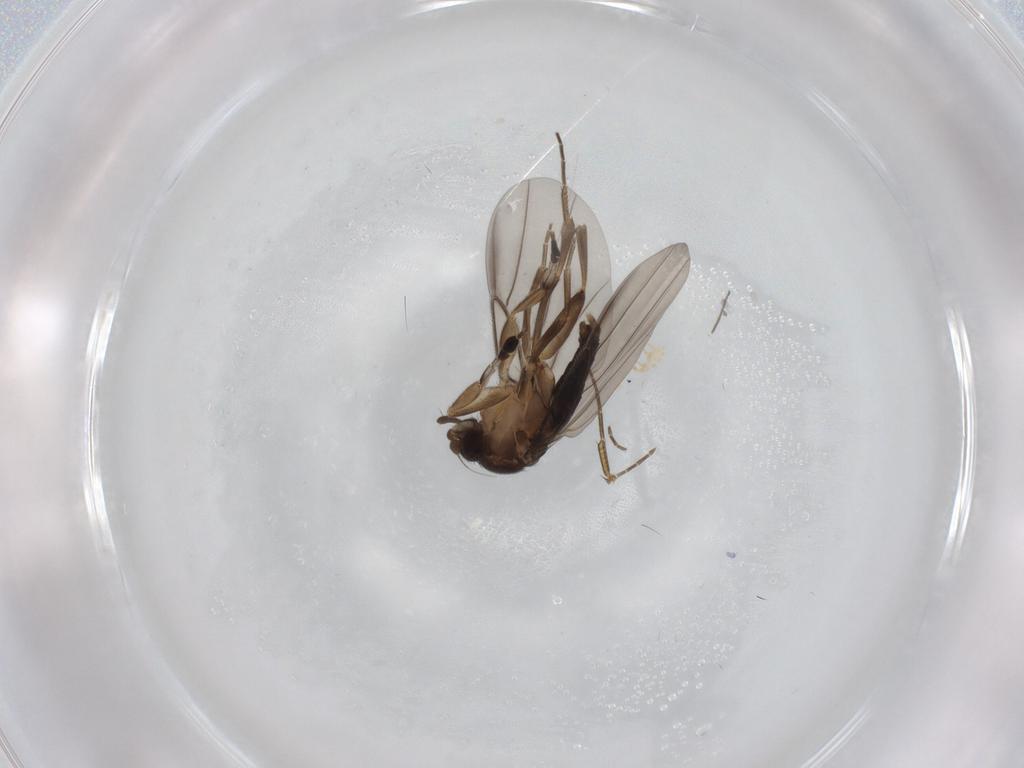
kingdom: Animalia
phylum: Arthropoda
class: Insecta
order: Diptera
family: Phoridae
